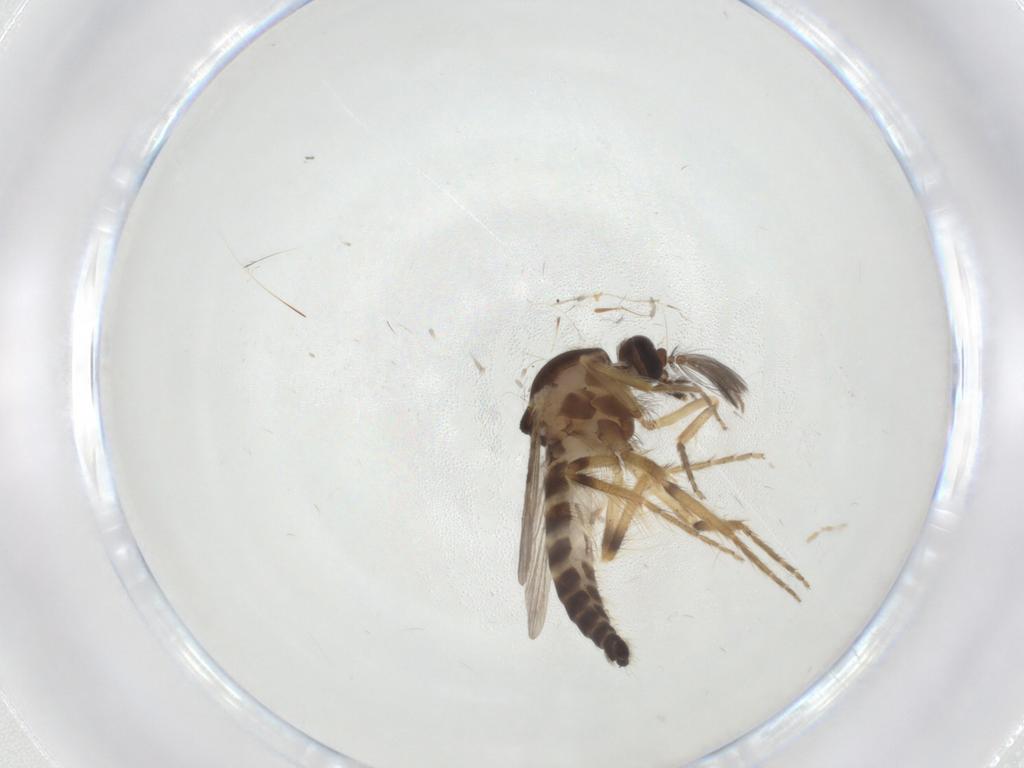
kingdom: Animalia
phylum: Arthropoda
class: Insecta
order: Diptera
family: Ceratopogonidae
